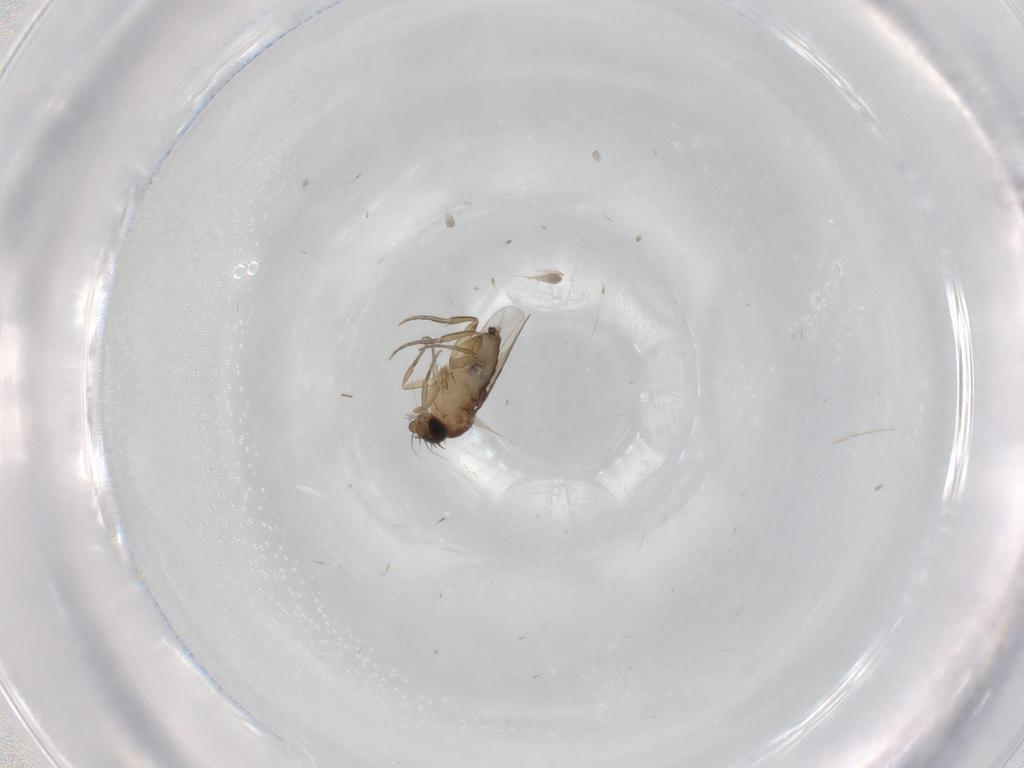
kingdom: Animalia
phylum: Arthropoda
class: Insecta
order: Diptera
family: Phoridae
